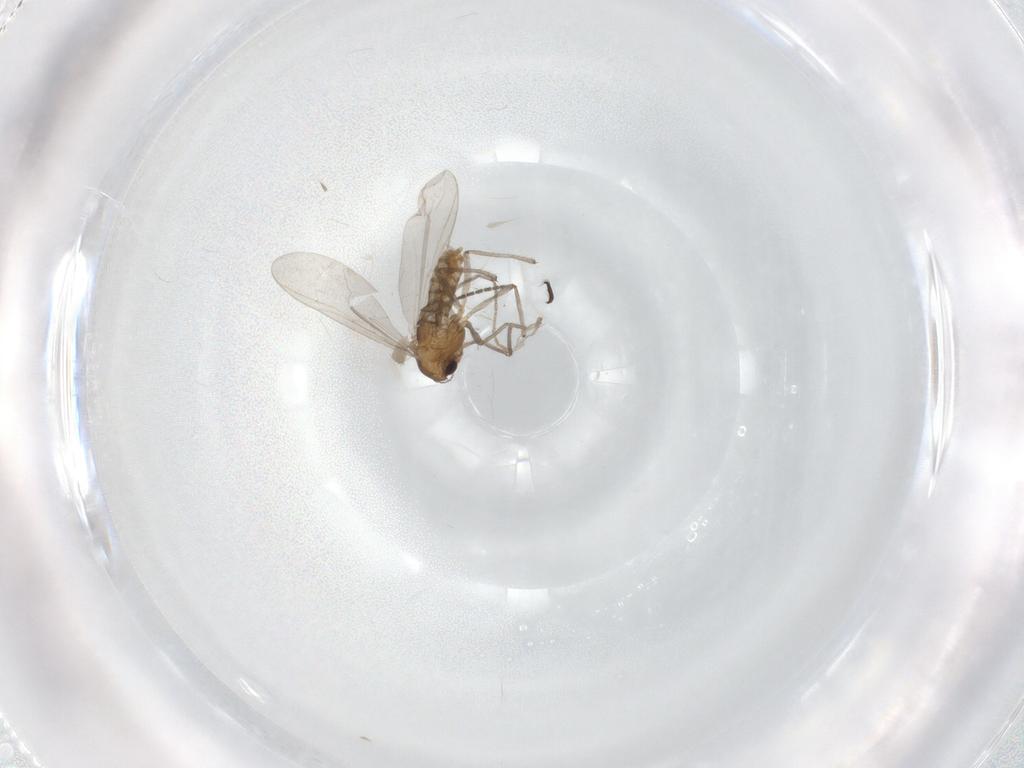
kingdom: Animalia
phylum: Arthropoda
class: Insecta
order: Diptera
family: Chironomidae
